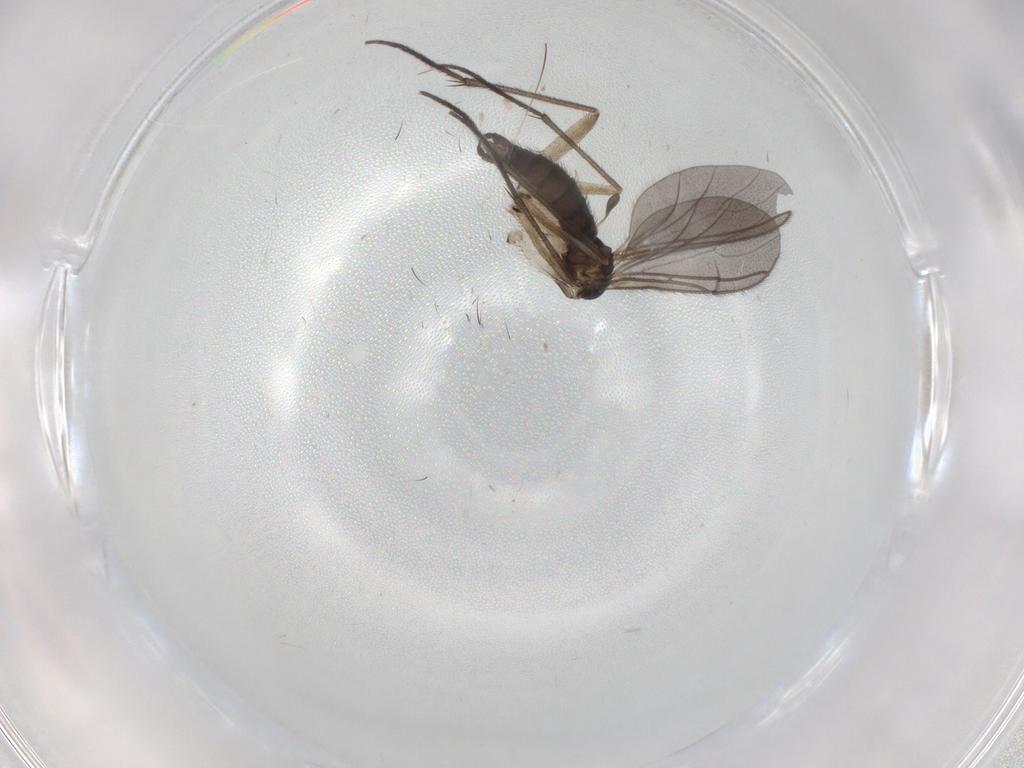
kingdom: Animalia
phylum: Arthropoda
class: Insecta
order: Diptera
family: Sciaridae
